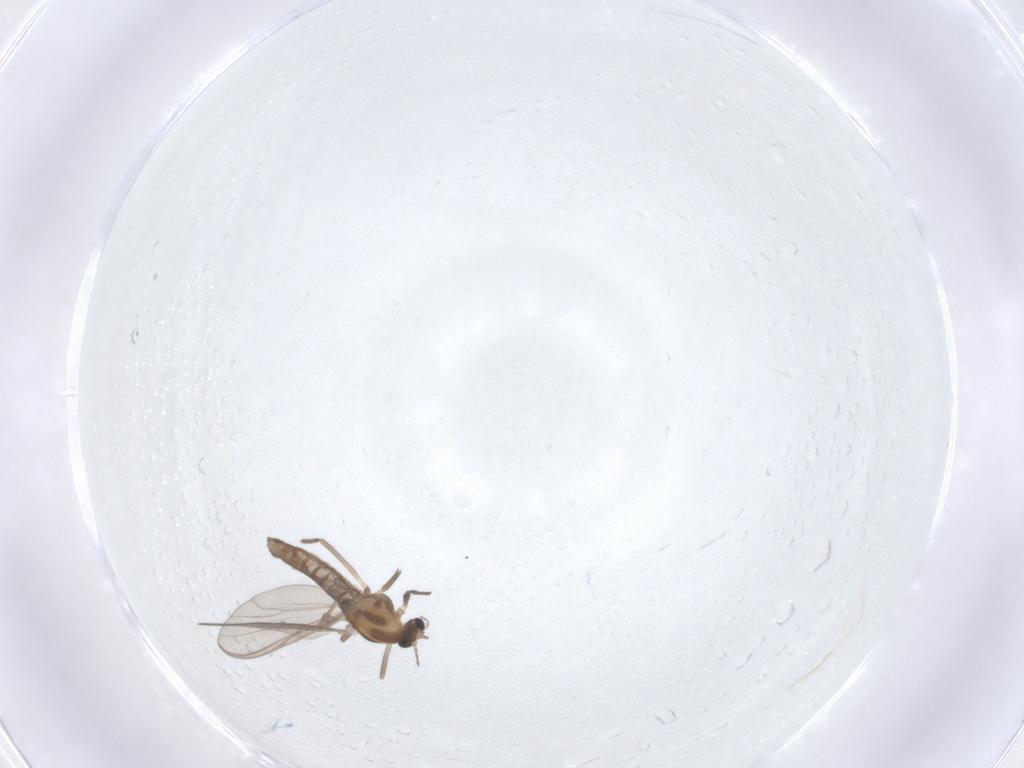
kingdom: Animalia
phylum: Arthropoda
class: Insecta
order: Diptera
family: Chironomidae
